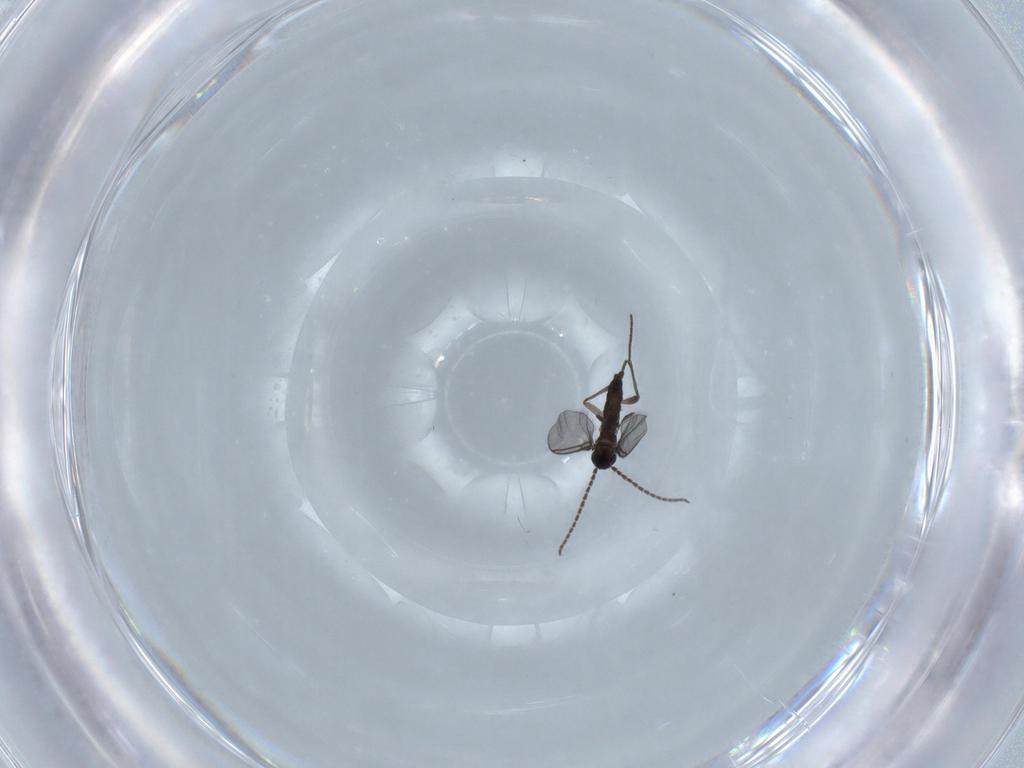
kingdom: Animalia
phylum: Arthropoda
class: Insecta
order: Diptera
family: Sciaridae
